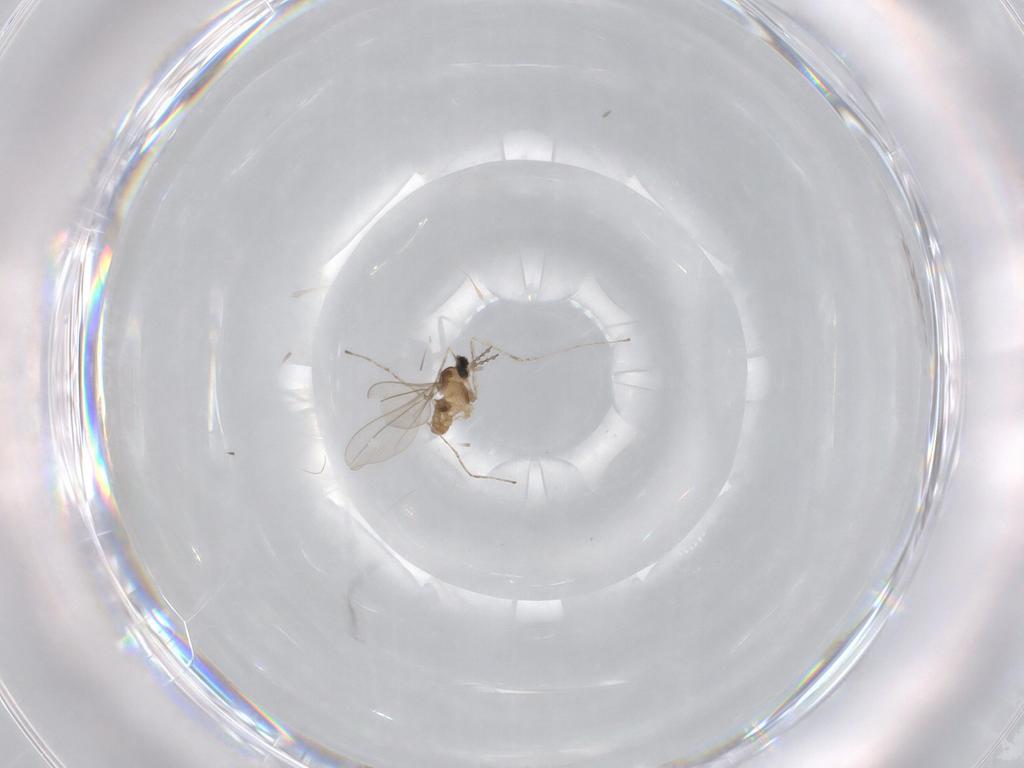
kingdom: Animalia
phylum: Arthropoda
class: Insecta
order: Diptera
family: Cecidomyiidae
